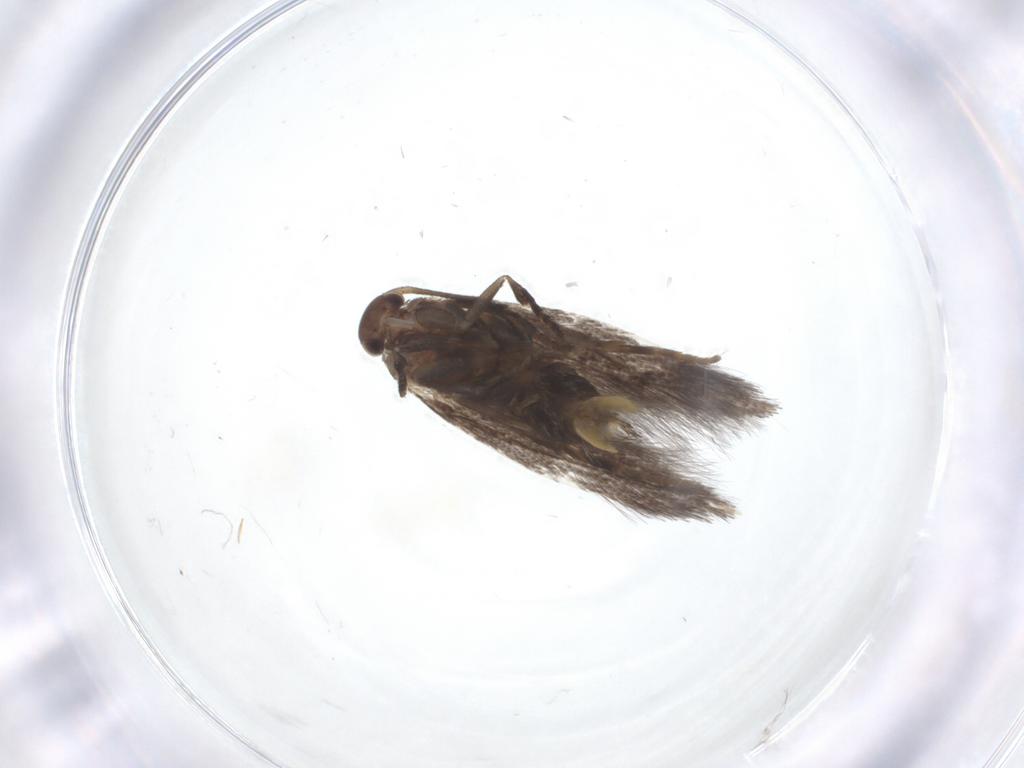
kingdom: Animalia
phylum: Arthropoda
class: Insecta
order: Lepidoptera
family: Elachistidae
